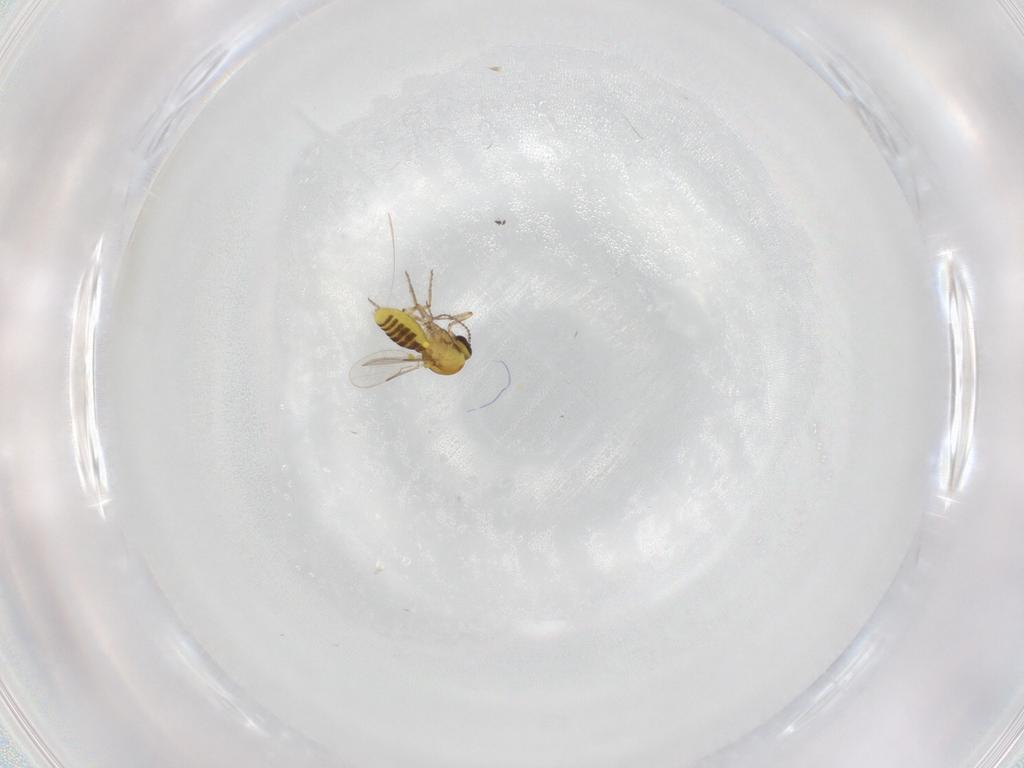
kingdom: Animalia
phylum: Arthropoda
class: Insecta
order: Diptera
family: Ceratopogonidae
